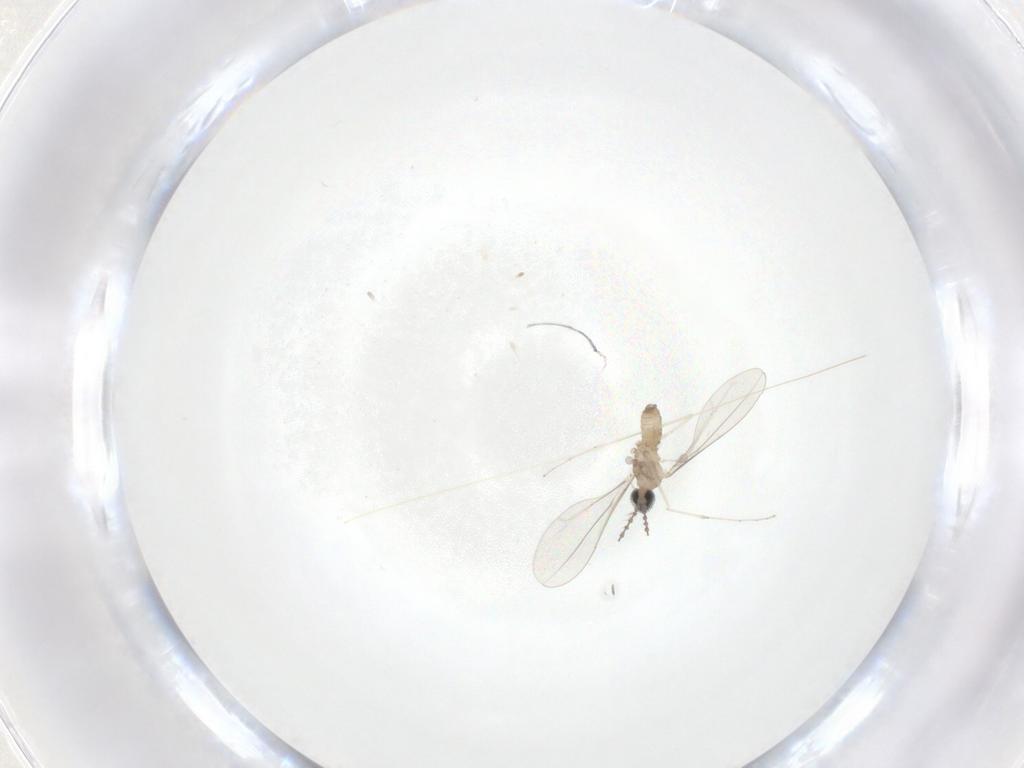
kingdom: Animalia
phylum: Arthropoda
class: Insecta
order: Diptera
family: Cecidomyiidae
